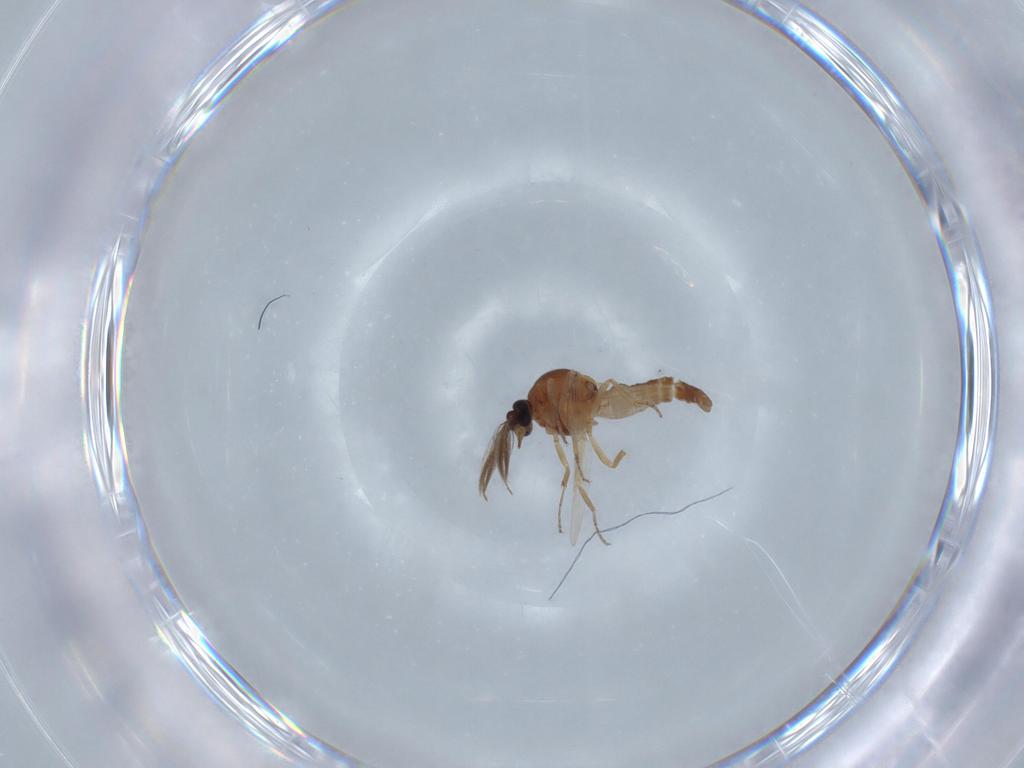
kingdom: Animalia
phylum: Arthropoda
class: Insecta
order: Diptera
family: Ceratopogonidae
